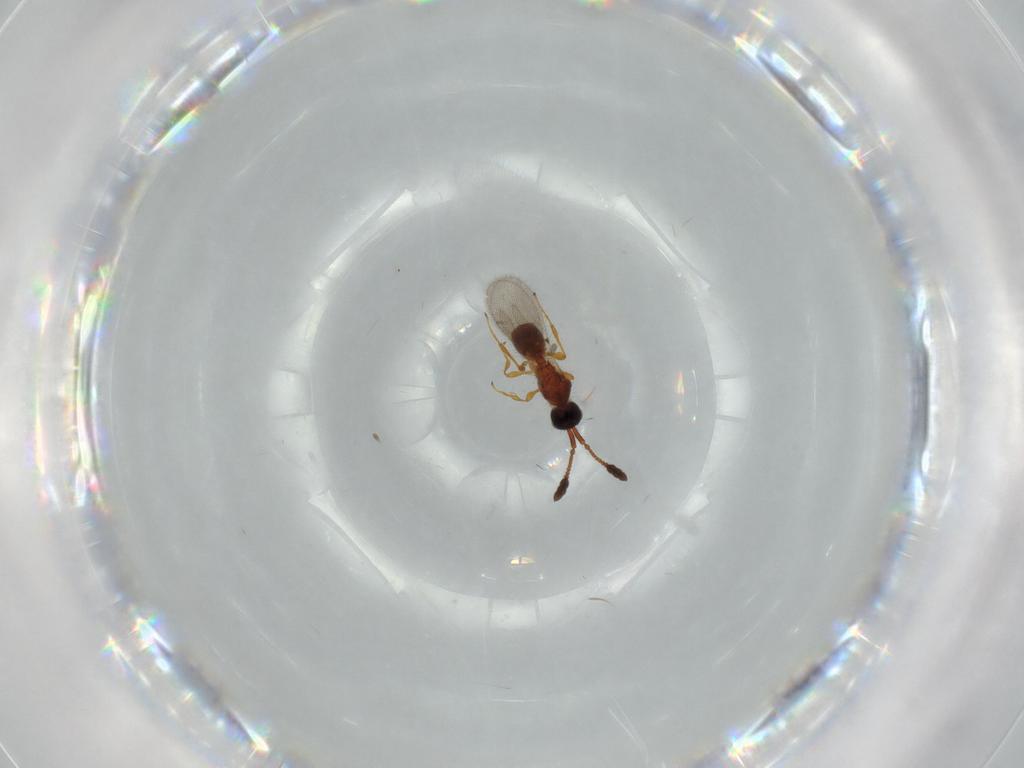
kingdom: Animalia
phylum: Arthropoda
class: Insecta
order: Hymenoptera
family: Diapriidae
